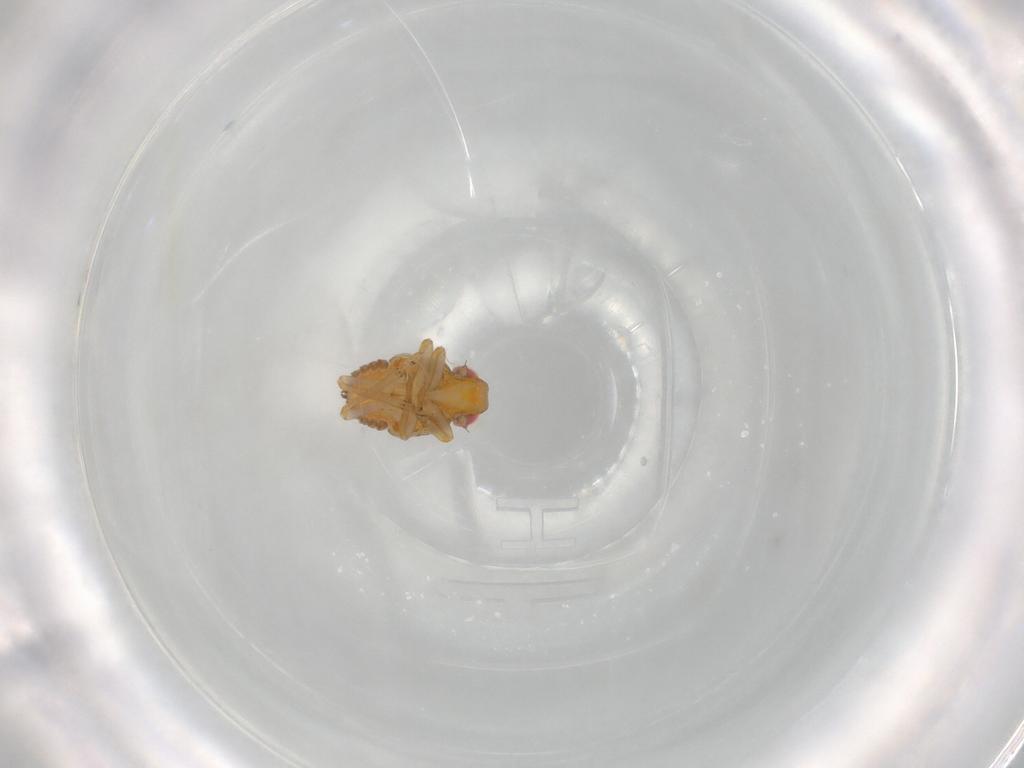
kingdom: Animalia
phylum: Arthropoda
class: Insecta
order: Hemiptera
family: Issidae
